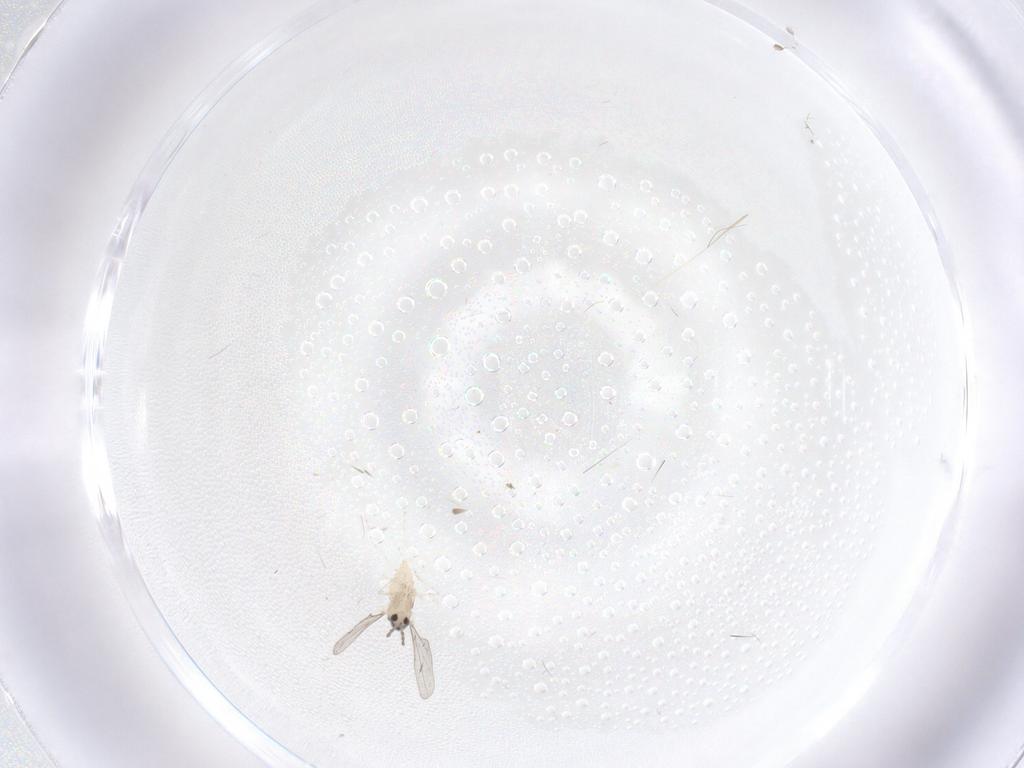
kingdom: Animalia
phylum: Arthropoda
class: Insecta
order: Diptera
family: Cecidomyiidae
